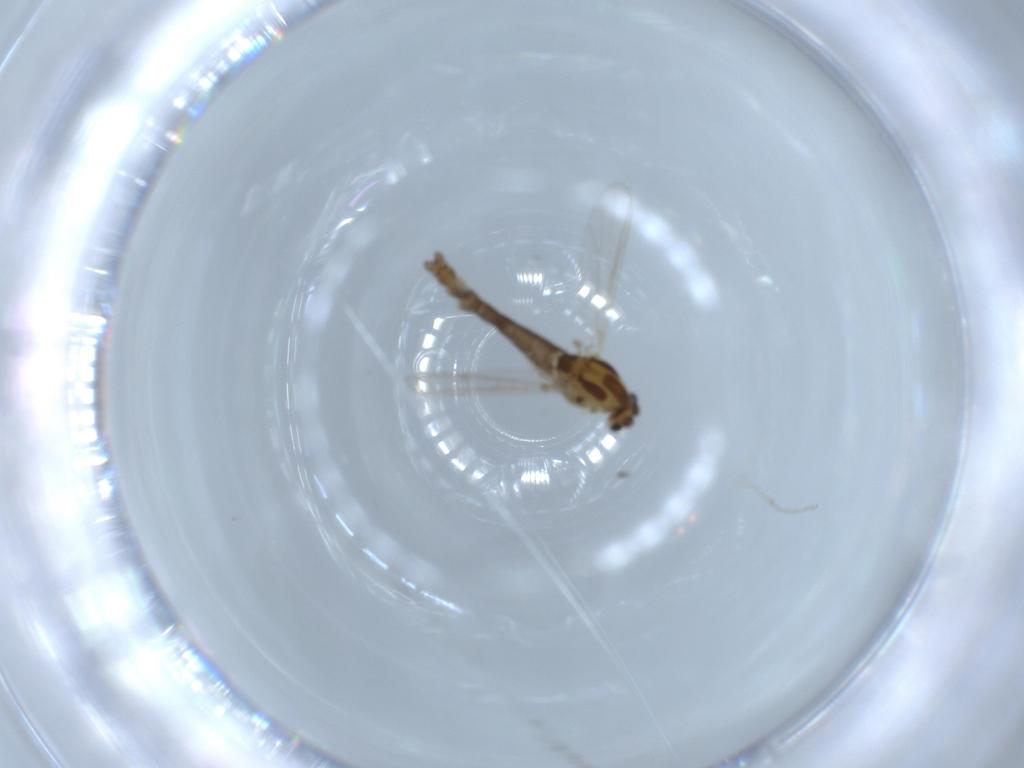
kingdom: Animalia
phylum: Arthropoda
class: Insecta
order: Diptera
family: Chironomidae
